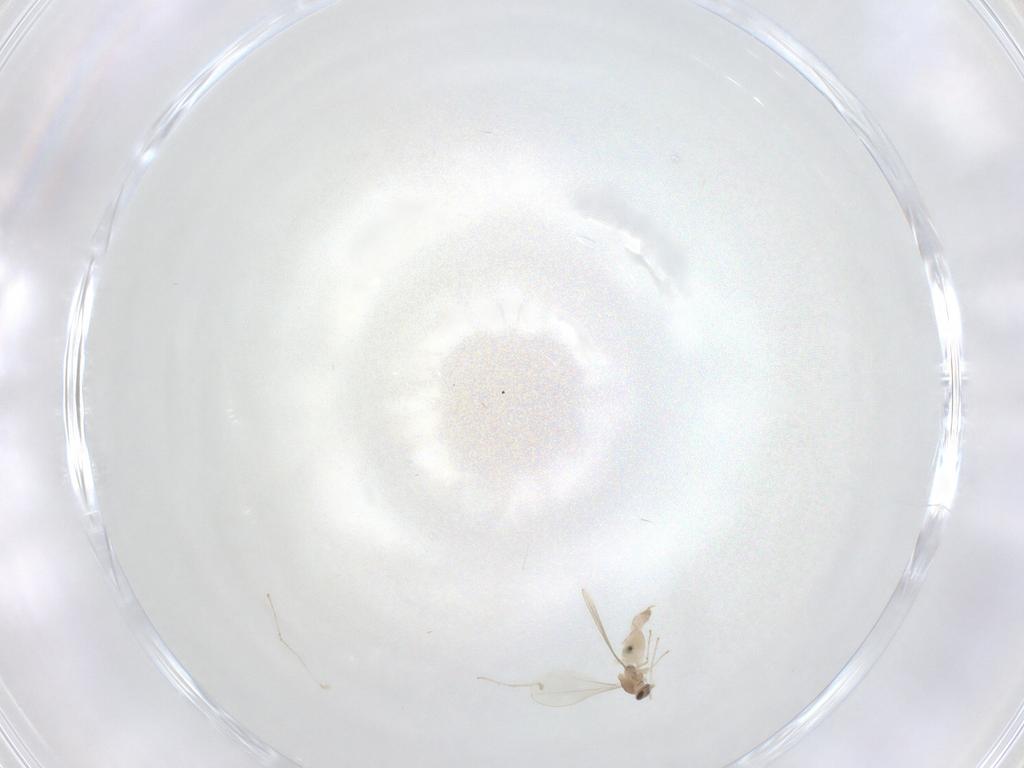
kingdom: Animalia
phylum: Arthropoda
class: Insecta
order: Diptera
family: Cecidomyiidae
